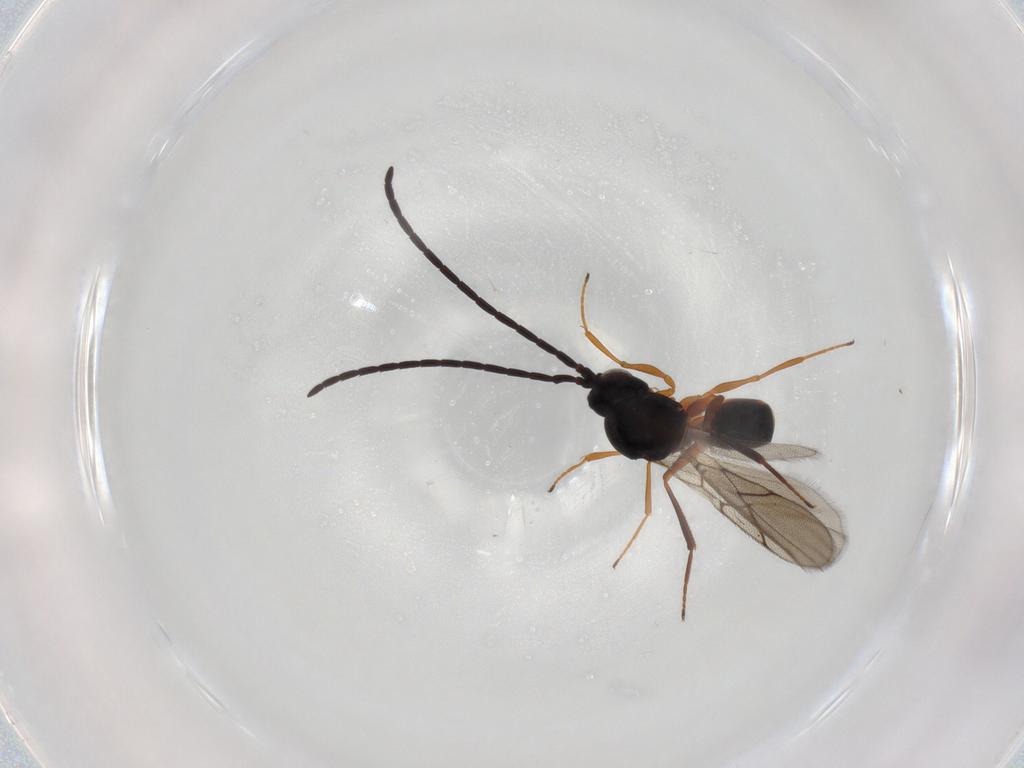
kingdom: Animalia
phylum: Arthropoda
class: Insecta
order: Hymenoptera
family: Figitidae
